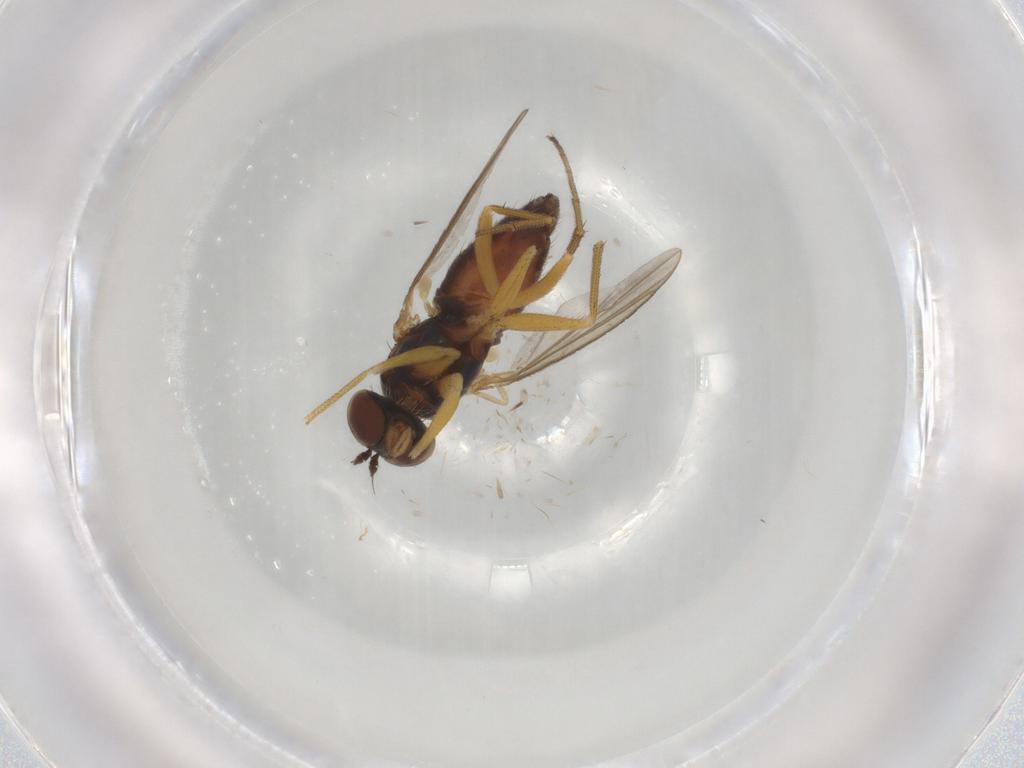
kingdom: Animalia
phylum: Arthropoda
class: Insecta
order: Diptera
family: Chironomidae
